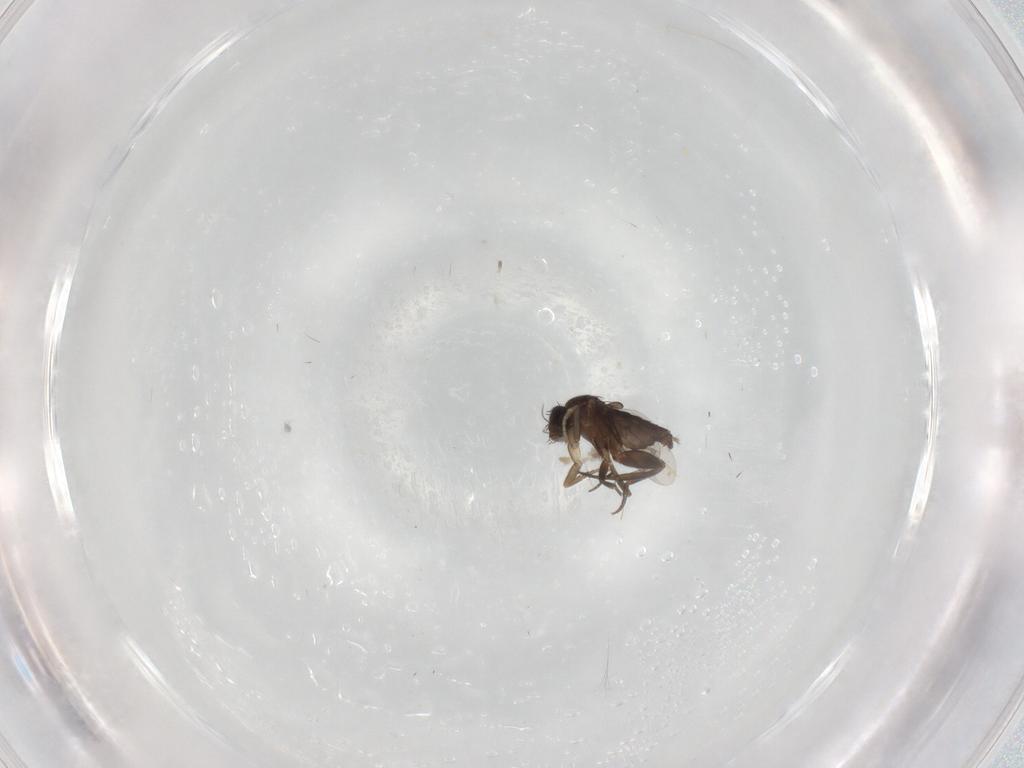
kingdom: Animalia
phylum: Arthropoda
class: Insecta
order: Diptera
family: Phoridae
